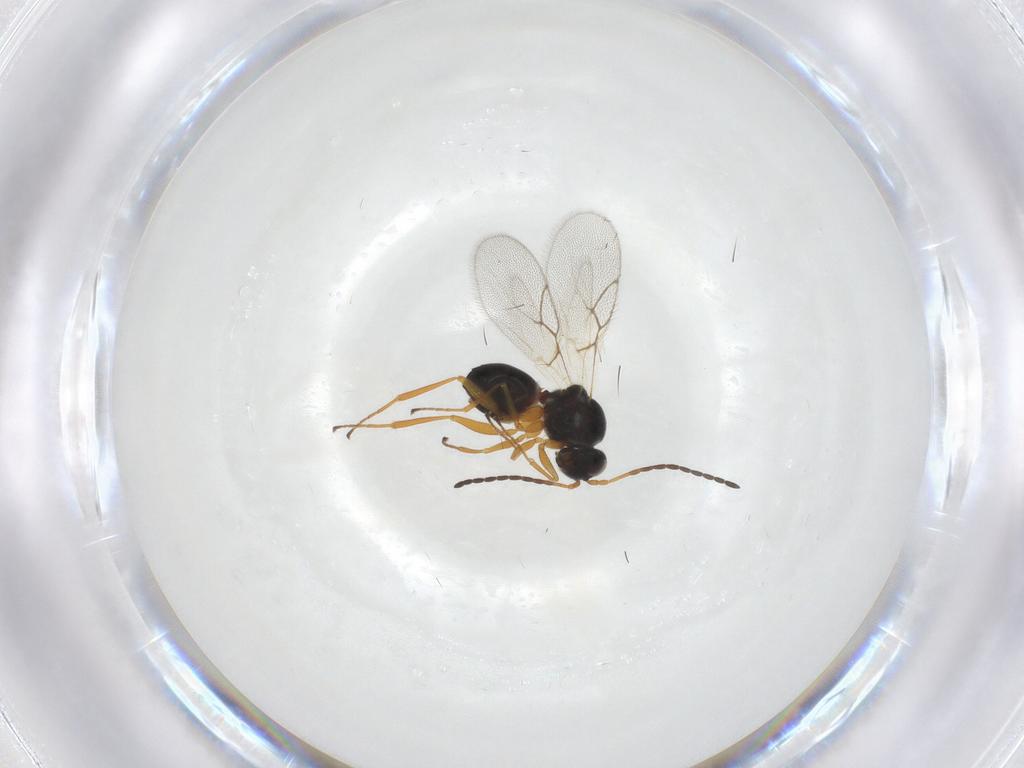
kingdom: Animalia
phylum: Arthropoda
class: Insecta
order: Hymenoptera
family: Figitidae
